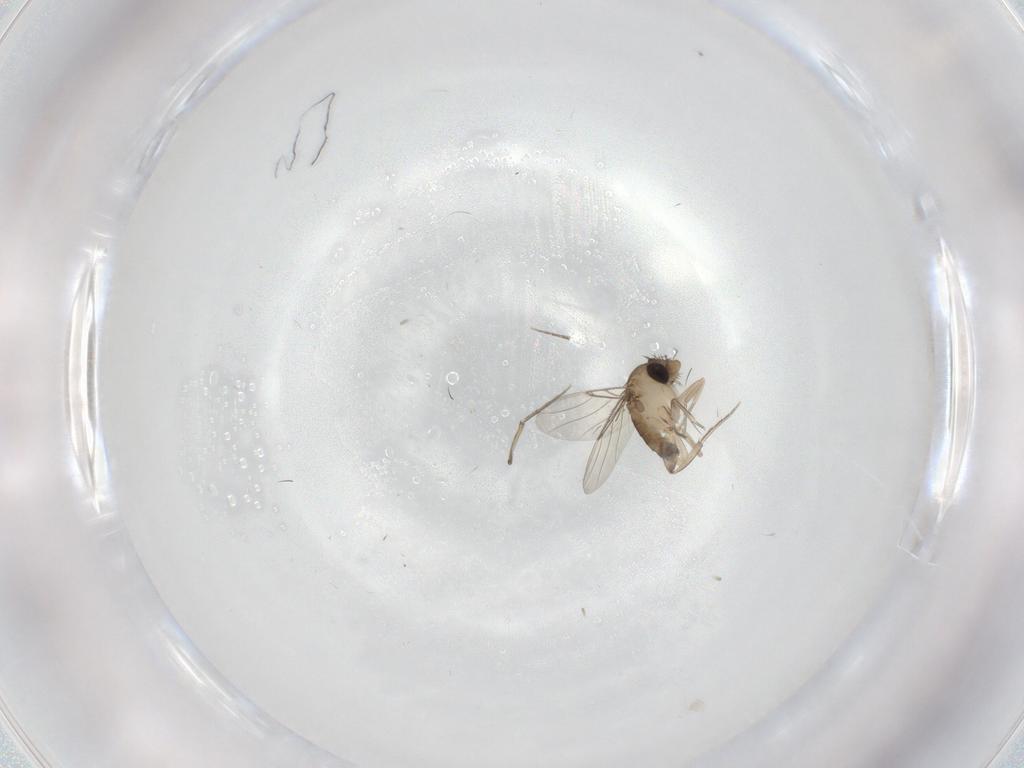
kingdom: Animalia
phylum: Arthropoda
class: Insecta
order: Diptera
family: Phoridae
